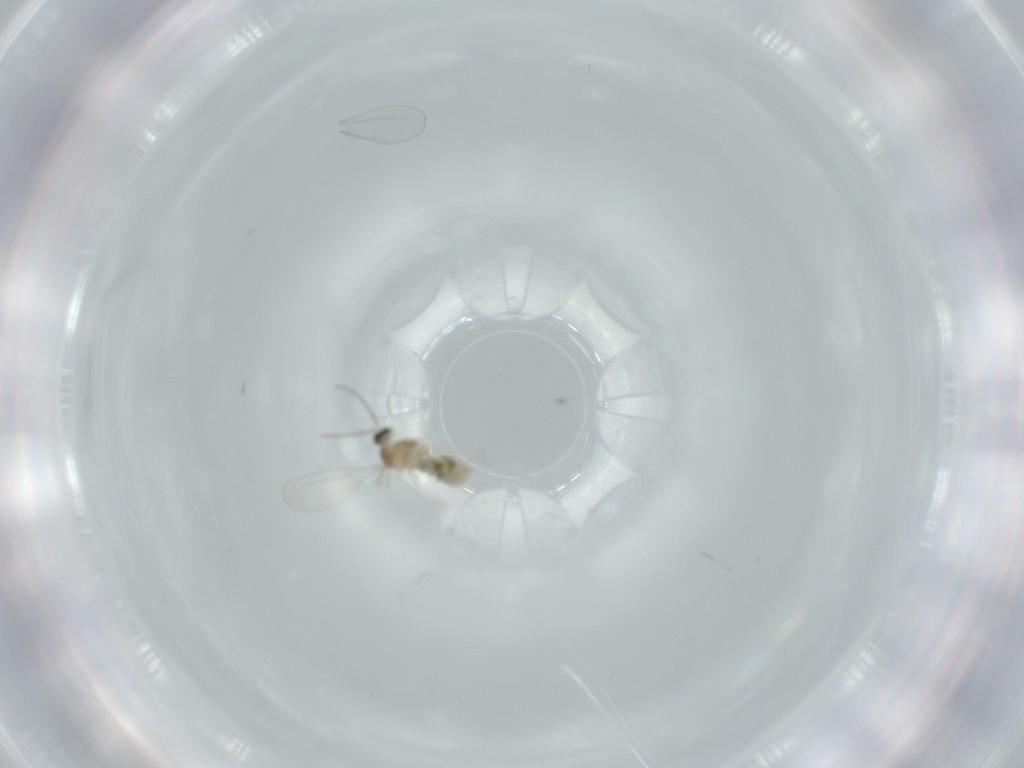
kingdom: Animalia
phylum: Arthropoda
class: Insecta
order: Diptera
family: Cecidomyiidae
